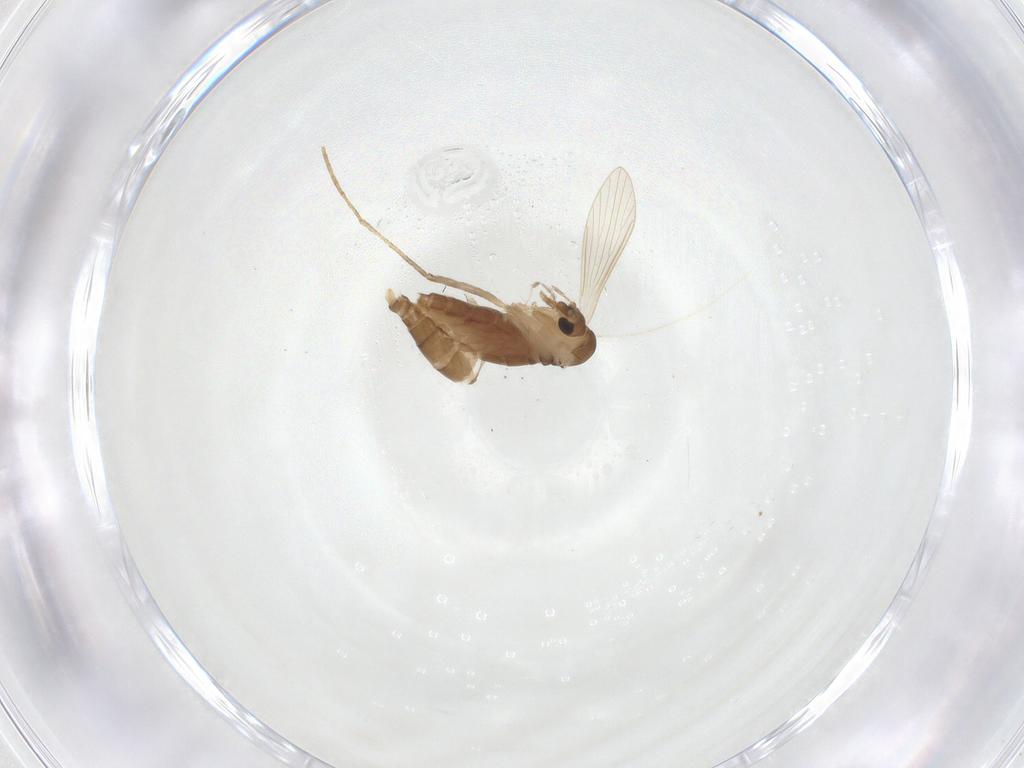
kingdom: Animalia
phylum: Arthropoda
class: Insecta
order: Diptera
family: Psychodidae
